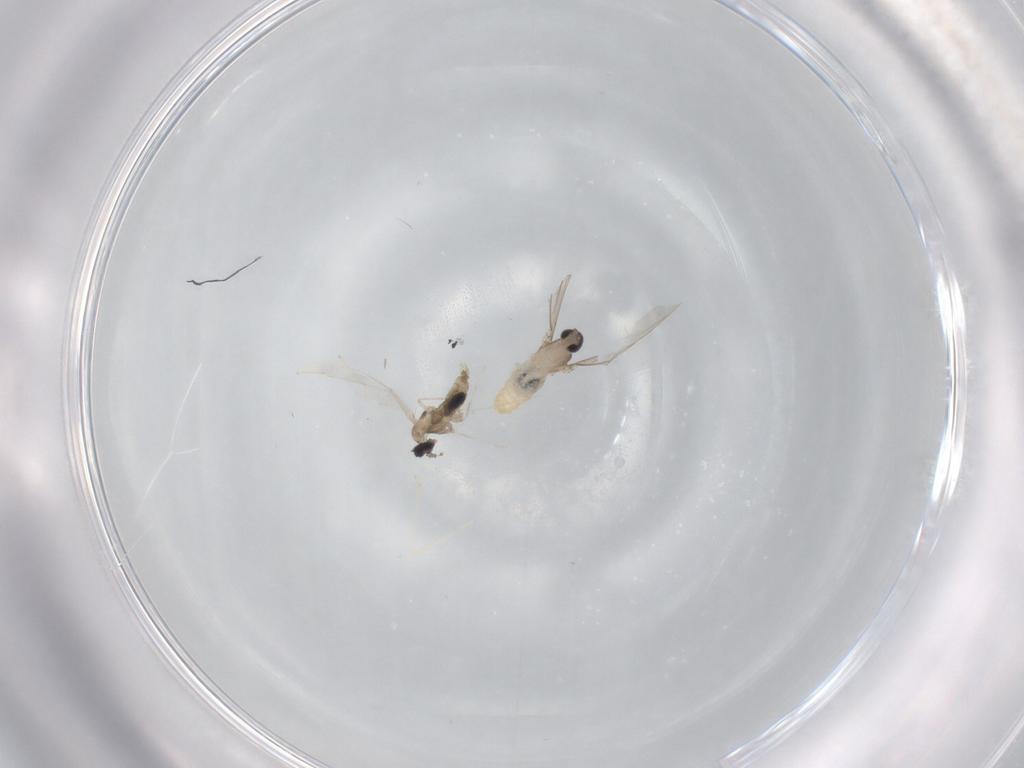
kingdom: Animalia
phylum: Arthropoda
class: Insecta
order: Diptera
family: Cecidomyiidae
